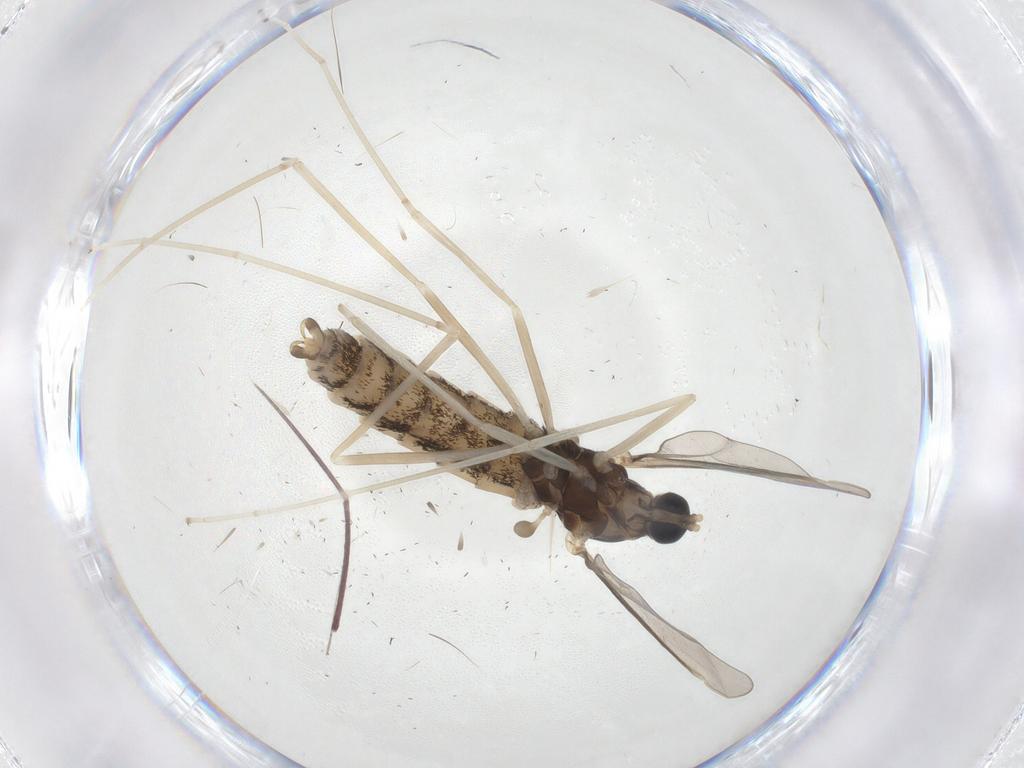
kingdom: Animalia
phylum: Arthropoda
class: Insecta
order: Diptera
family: Cecidomyiidae
